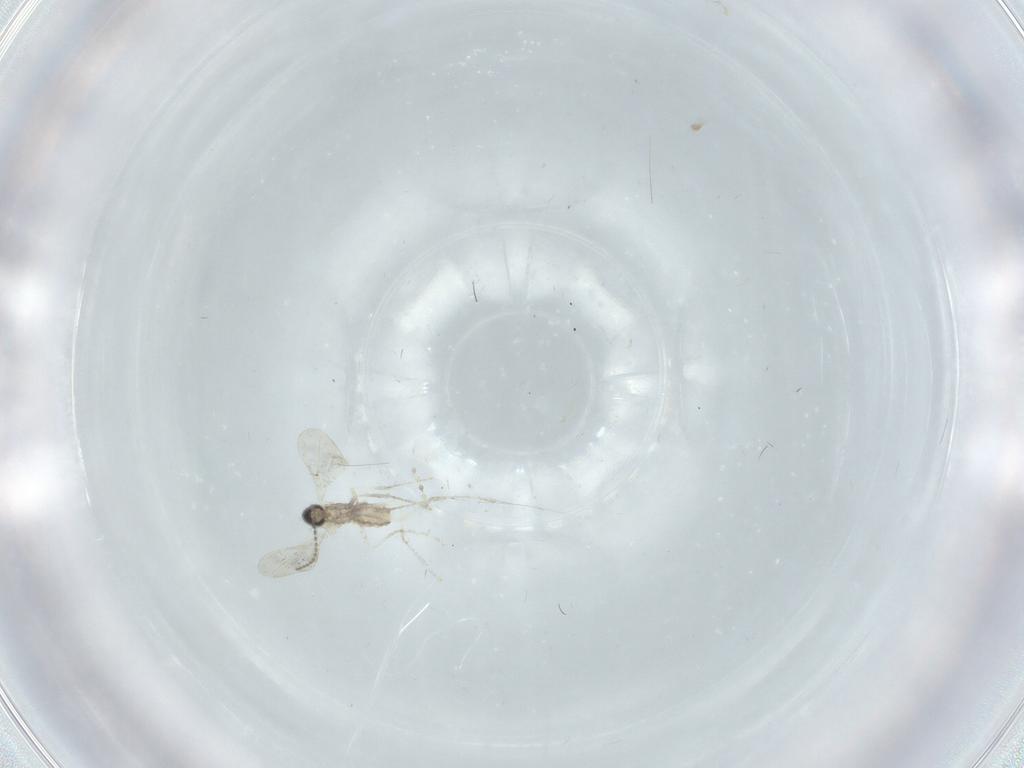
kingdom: Animalia
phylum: Arthropoda
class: Insecta
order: Diptera
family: Cecidomyiidae
